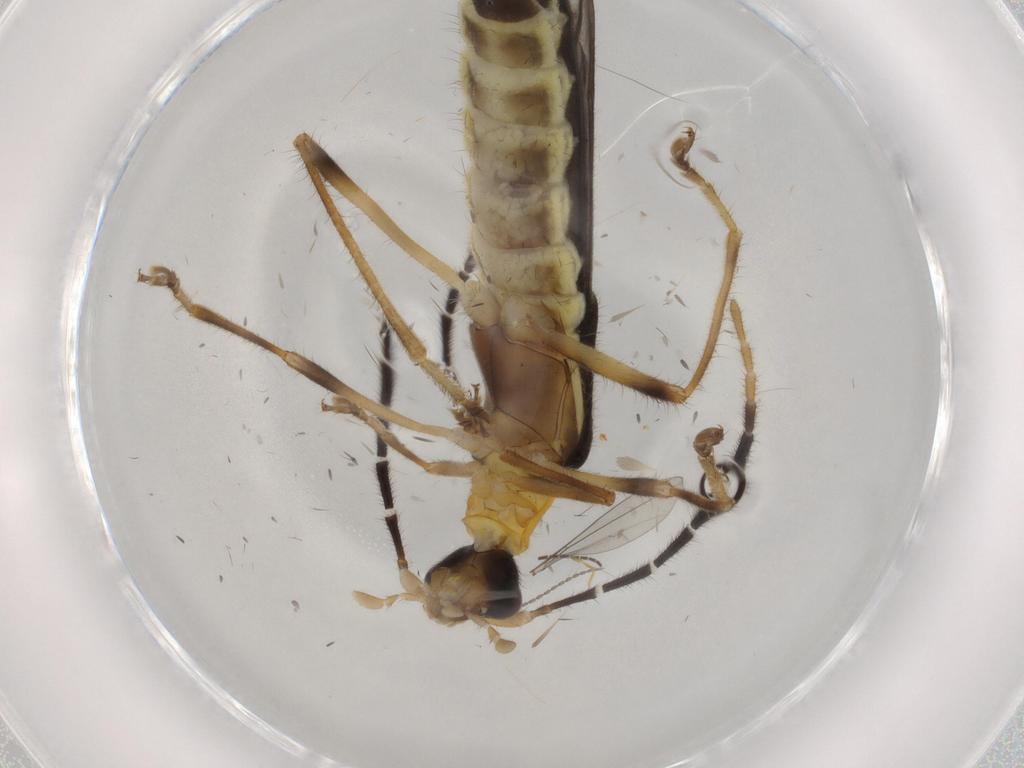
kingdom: Animalia
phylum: Arthropoda
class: Insecta
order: Coleoptera
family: Cantharidae
